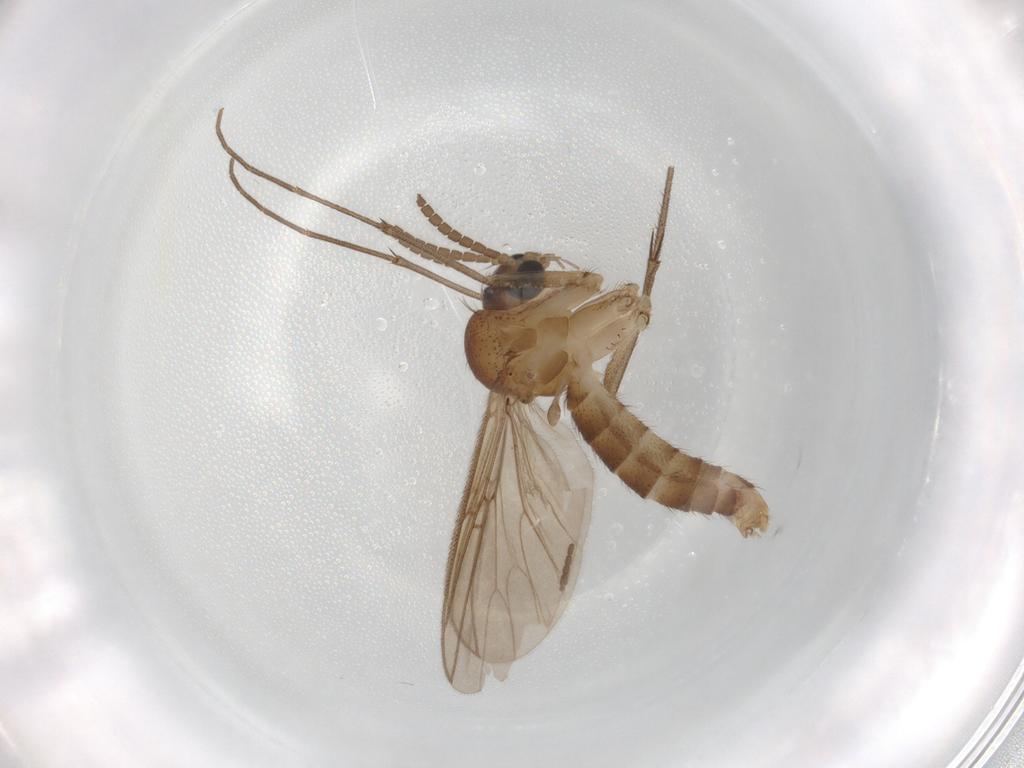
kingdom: Animalia
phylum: Arthropoda
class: Insecta
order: Diptera
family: Mycetophilidae
